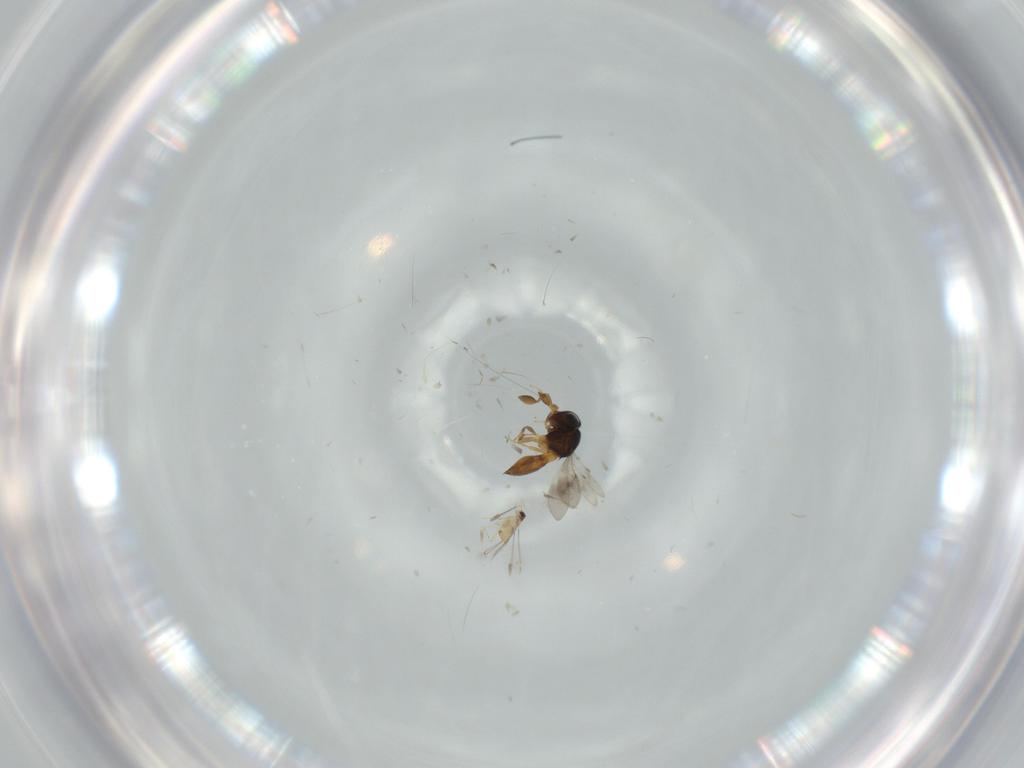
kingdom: Animalia
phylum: Arthropoda
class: Insecta
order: Hymenoptera
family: Scelionidae
